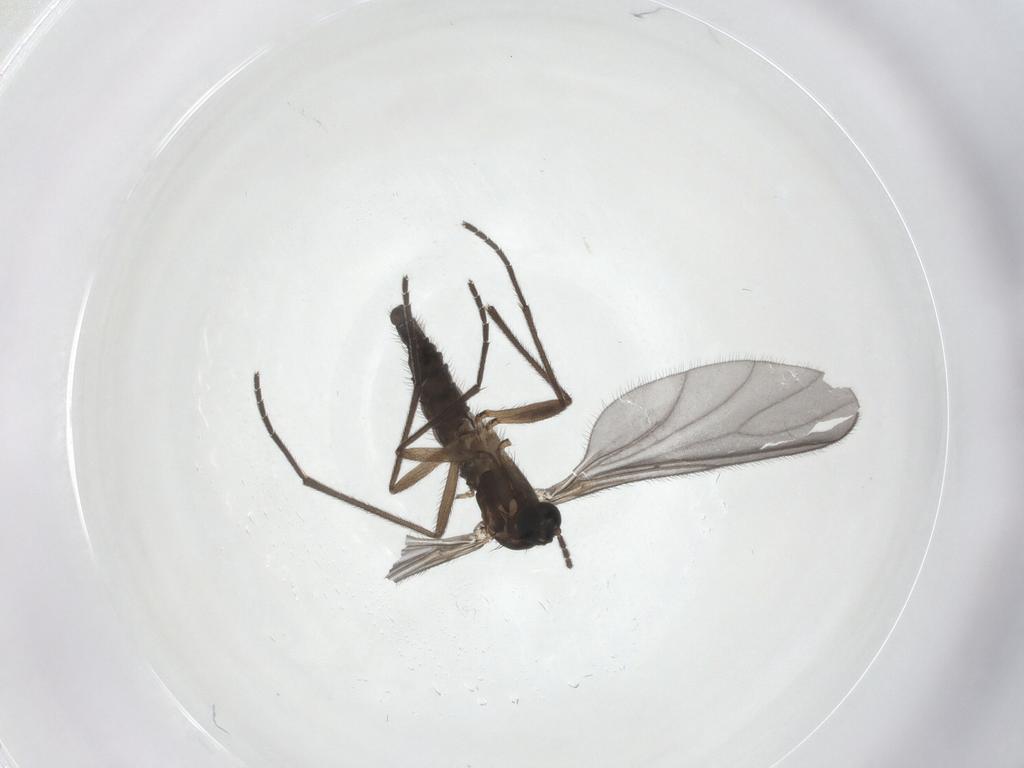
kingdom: Animalia
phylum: Arthropoda
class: Insecta
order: Diptera
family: Sciaridae
